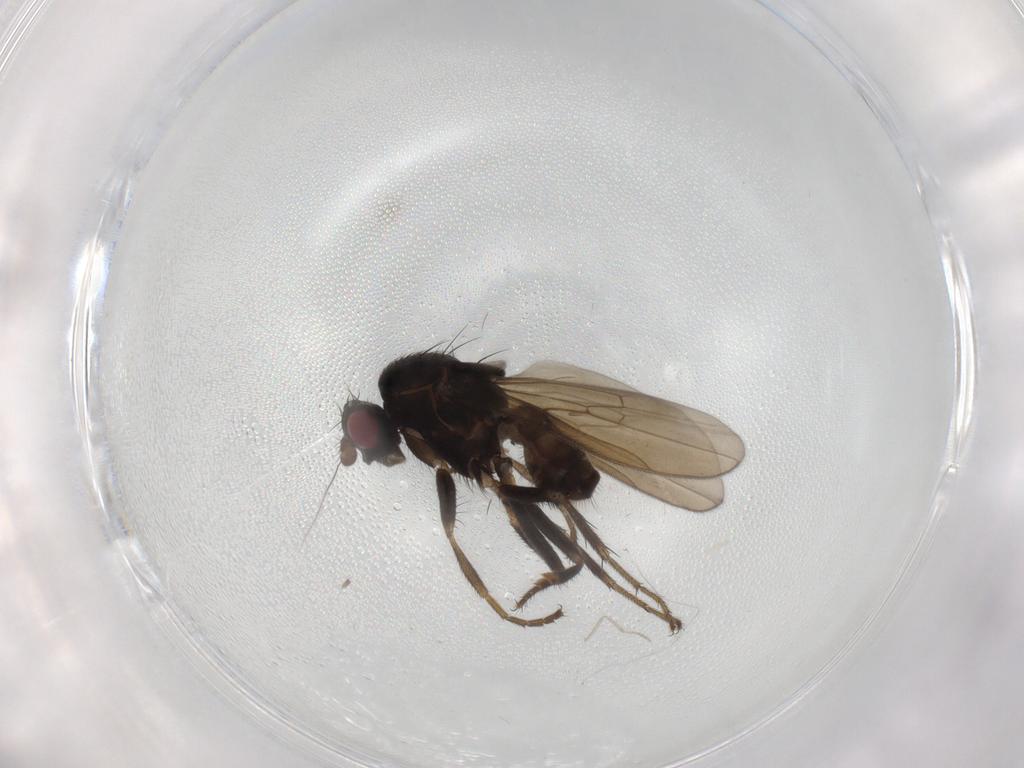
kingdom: Animalia
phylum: Arthropoda
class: Insecta
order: Diptera
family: Sphaeroceridae
